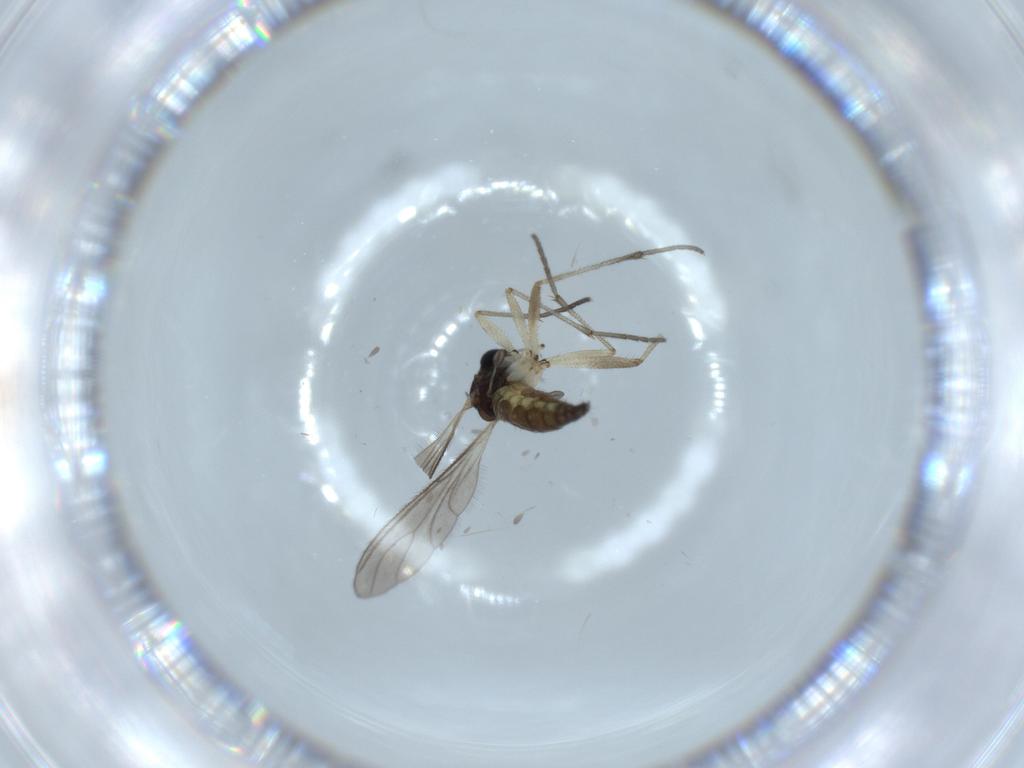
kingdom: Animalia
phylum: Arthropoda
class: Insecta
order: Diptera
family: Sciaridae
